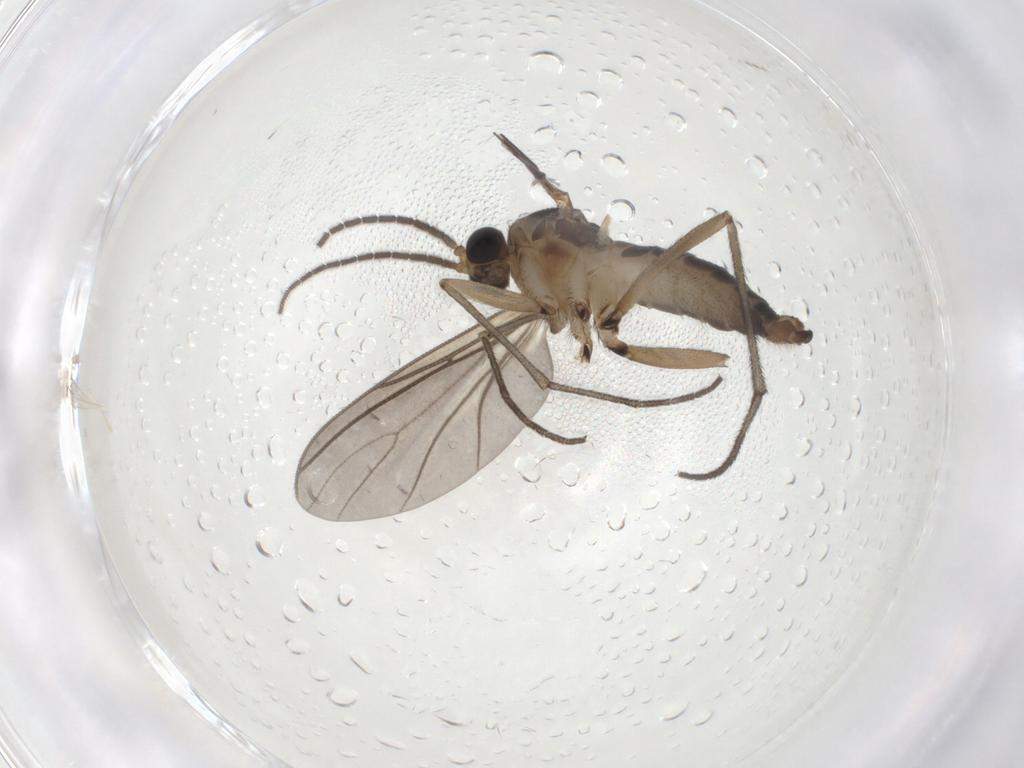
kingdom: Animalia
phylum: Arthropoda
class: Insecta
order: Diptera
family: Sciaridae
